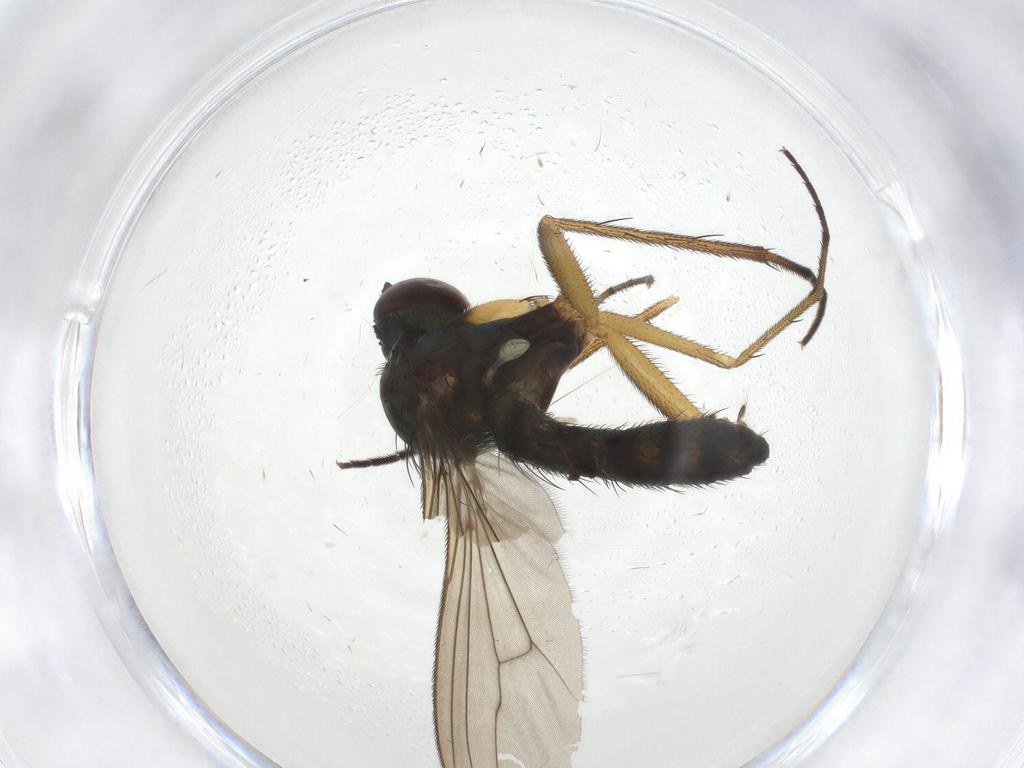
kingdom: Animalia
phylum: Arthropoda
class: Insecta
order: Diptera
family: Dolichopodidae
